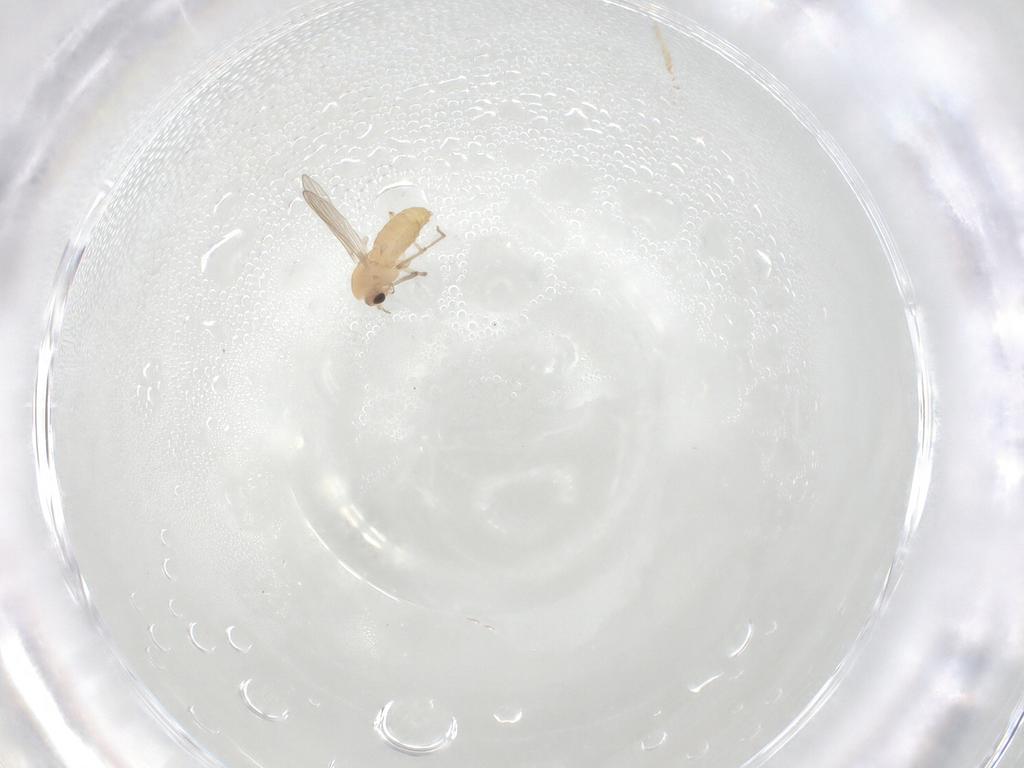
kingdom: Animalia
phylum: Arthropoda
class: Insecta
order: Diptera
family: Chironomidae
